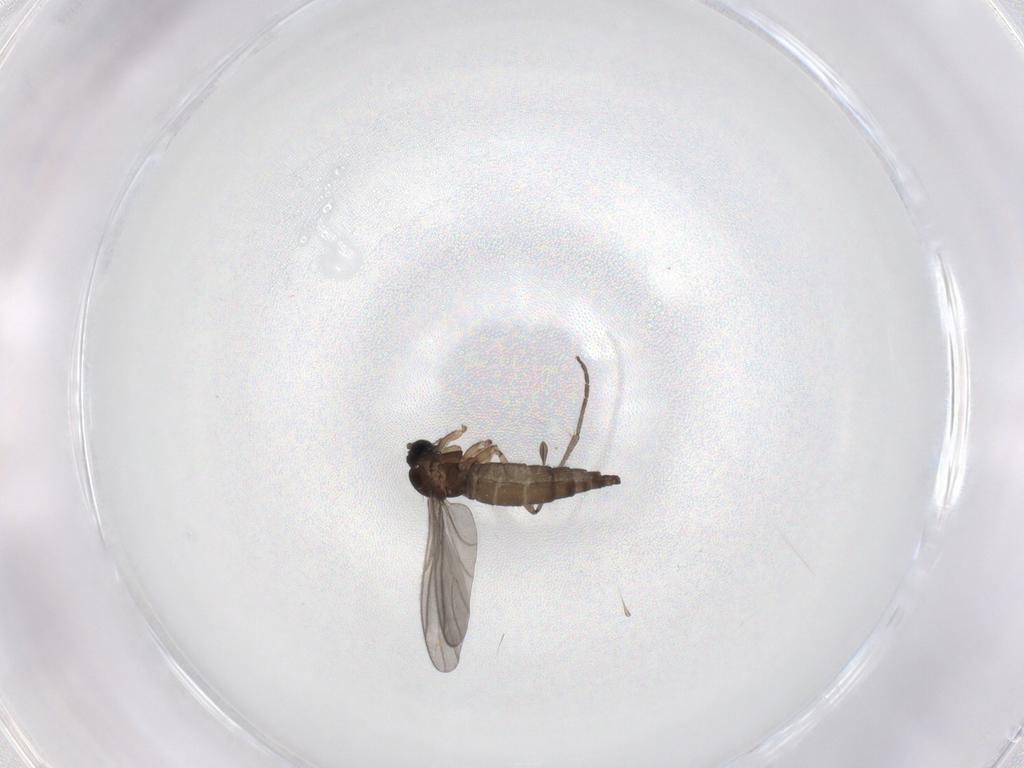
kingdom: Animalia
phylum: Arthropoda
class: Insecta
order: Diptera
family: Sciaridae
